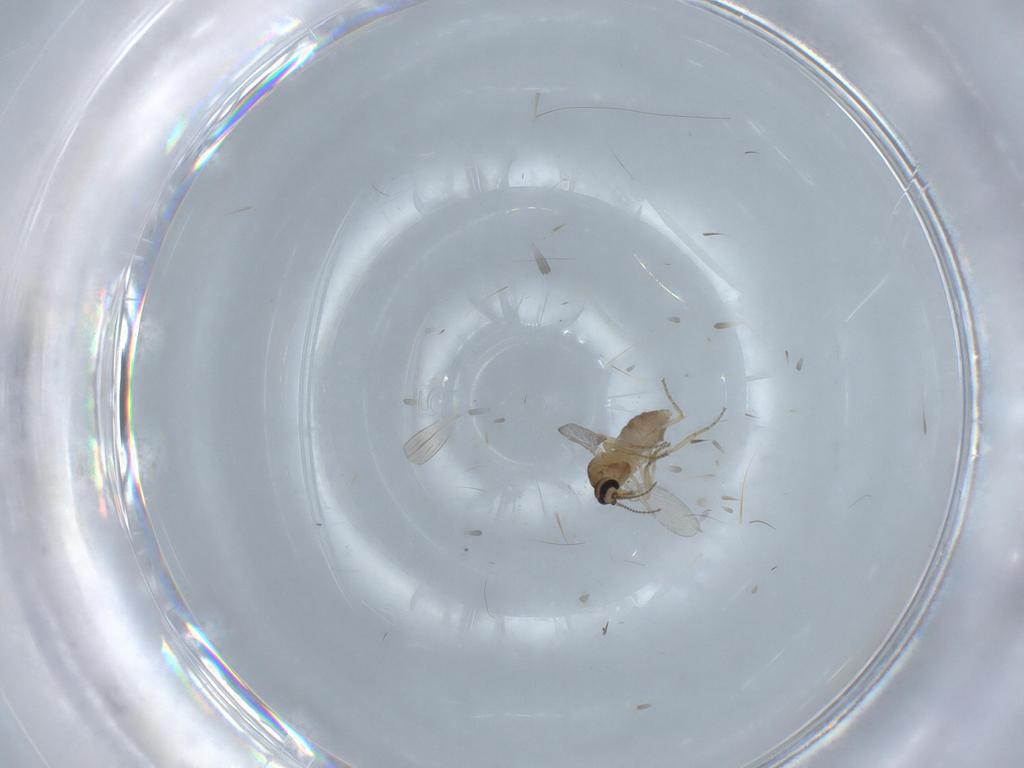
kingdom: Animalia
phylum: Arthropoda
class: Insecta
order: Diptera
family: Ceratopogonidae
